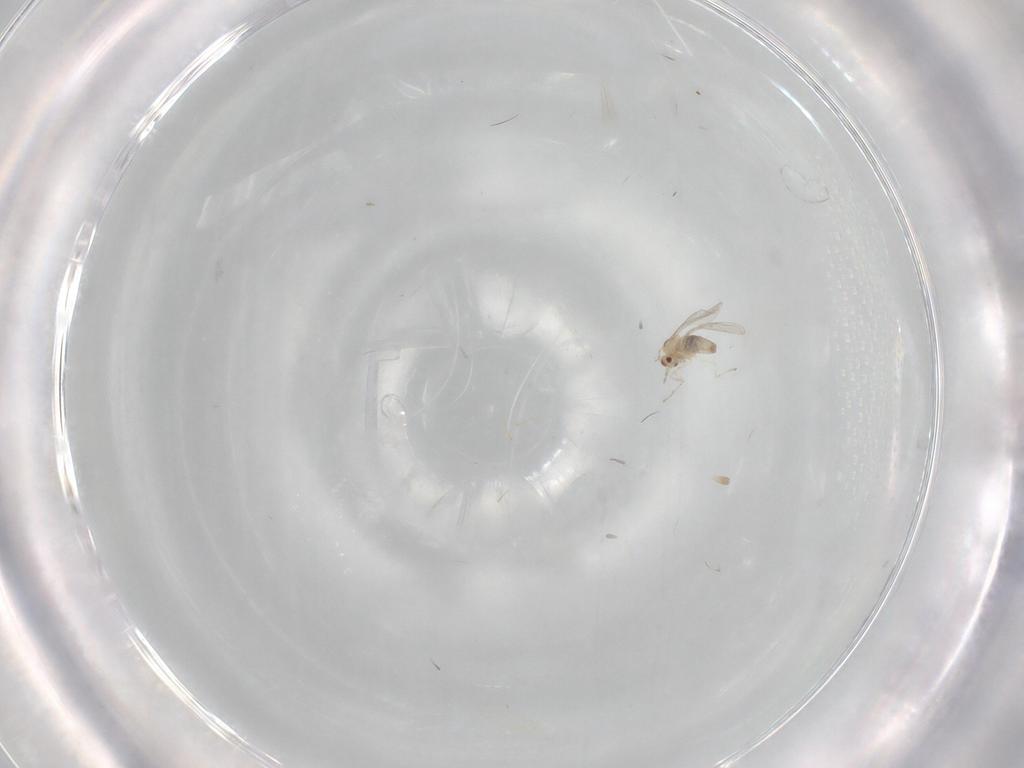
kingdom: Animalia
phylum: Arthropoda
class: Insecta
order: Diptera
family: Cecidomyiidae
